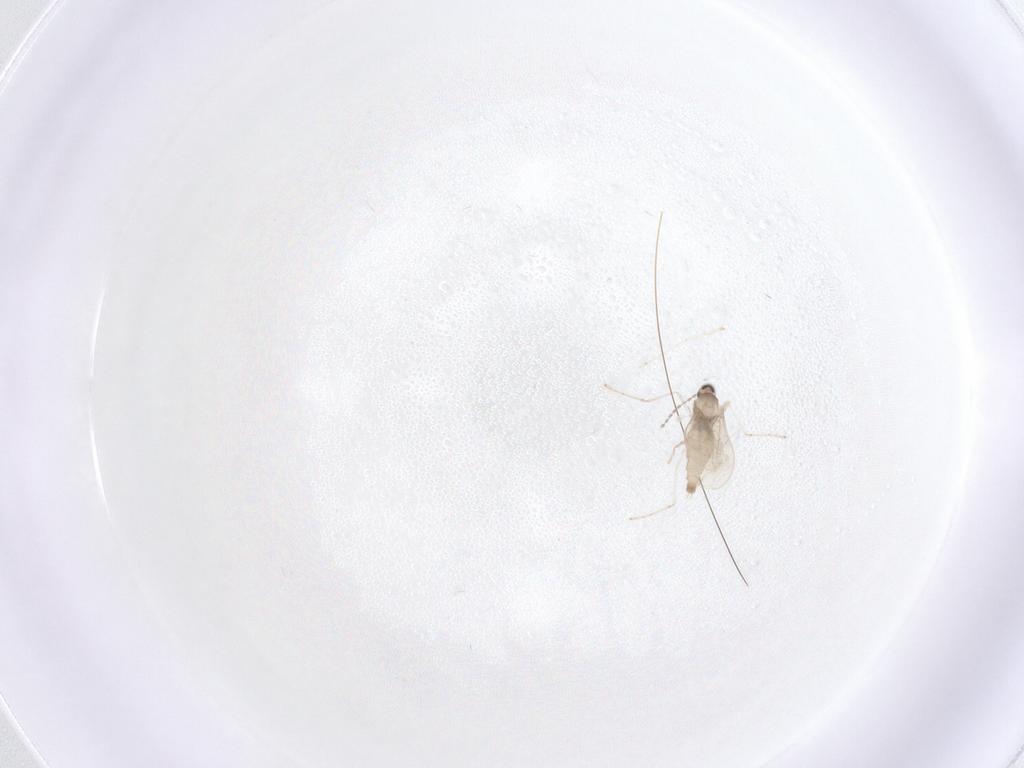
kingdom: Animalia
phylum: Arthropoda
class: Insecta
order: Diptera
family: Cecidomyiidae
